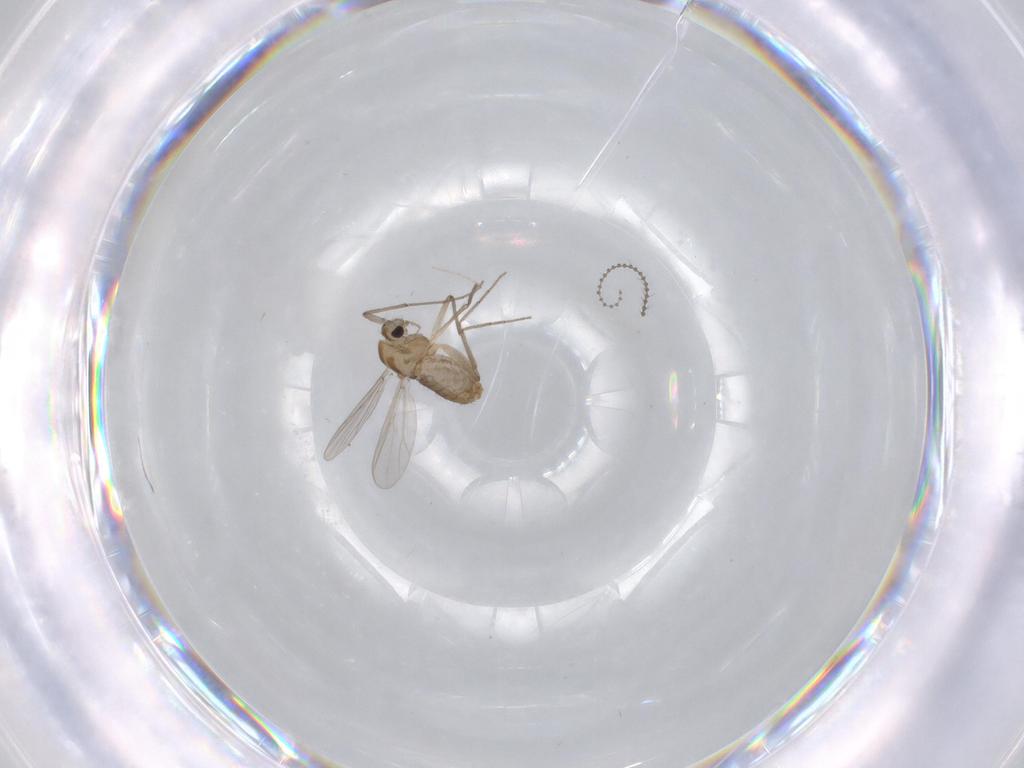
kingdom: Animalia
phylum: Arthropoda
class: Insecta
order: Diptera
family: Chironomidae
